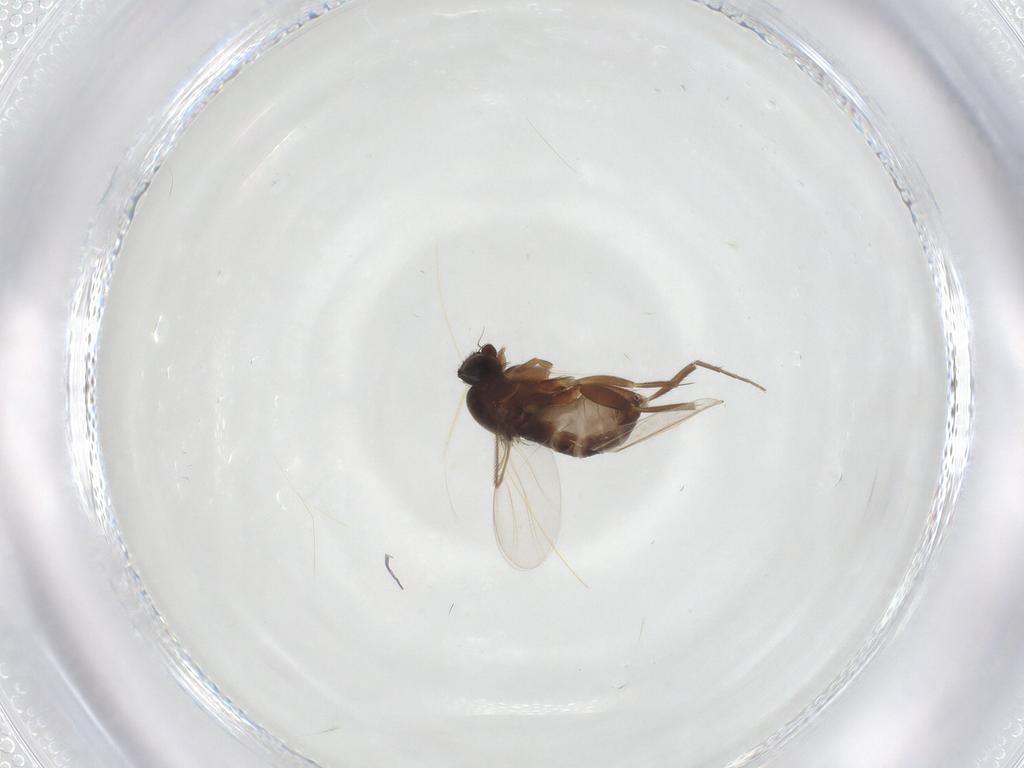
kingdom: Animalia
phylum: Arthropoda
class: Insecta
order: Diptera
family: Phoridae
